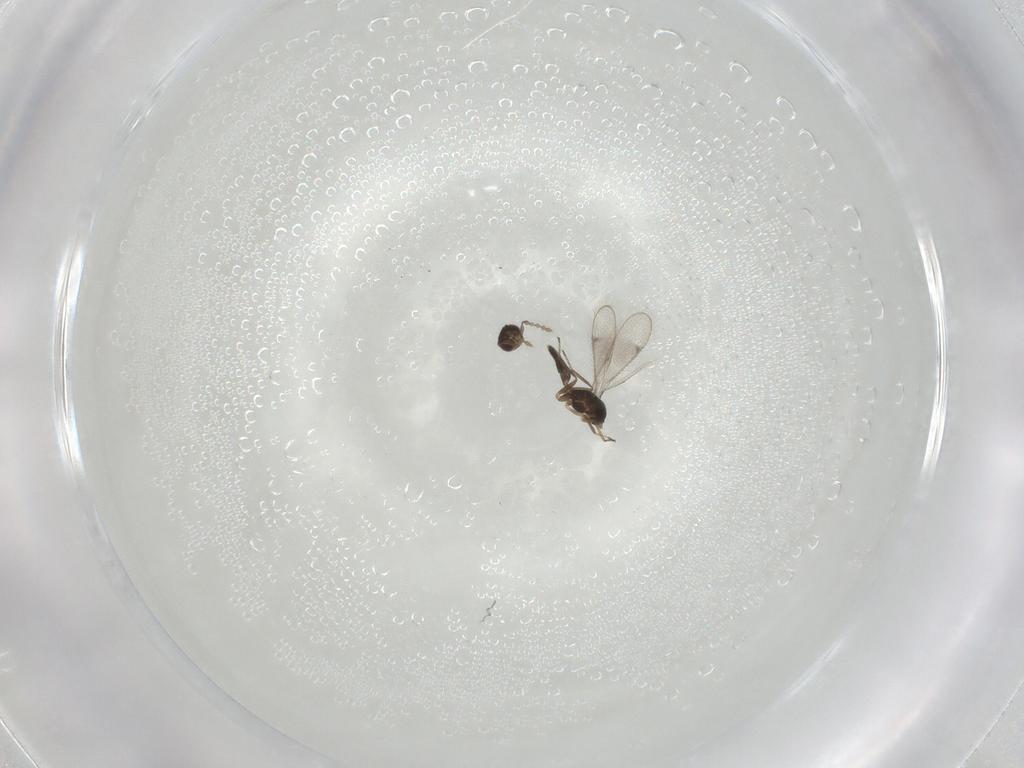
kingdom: Animalia
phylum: Arthropoda
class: Insecta
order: Hymenoptera
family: Eulophidae
